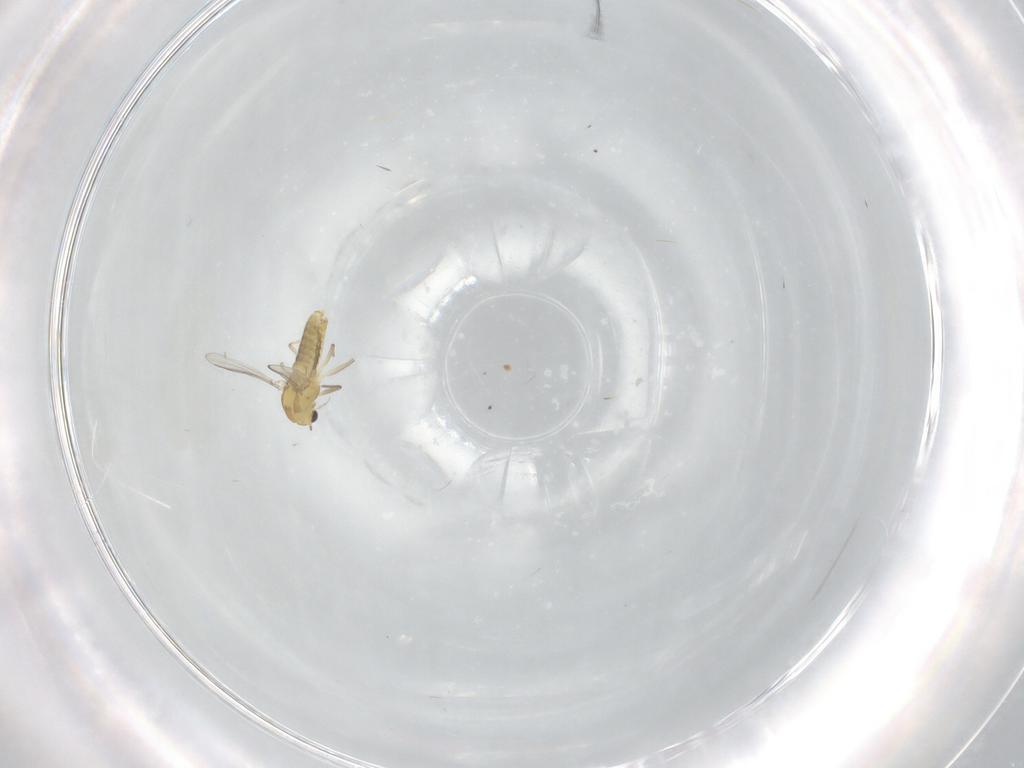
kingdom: Animalia
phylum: Arthropoda
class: Insecta
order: Diptera
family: Chironomidae
